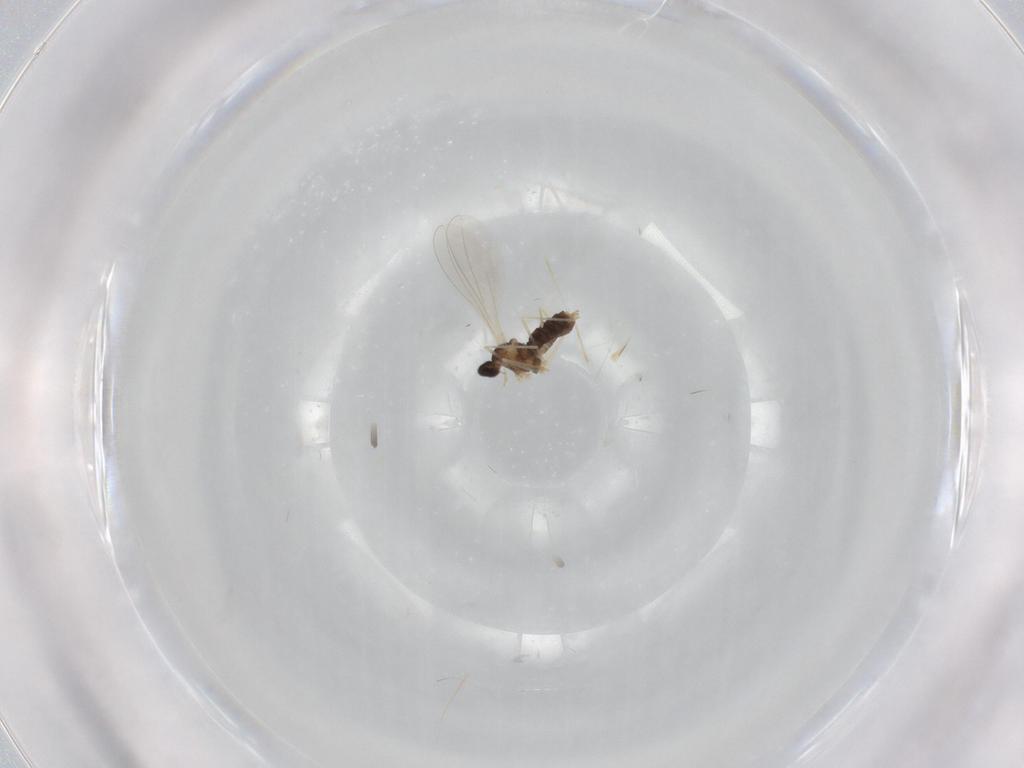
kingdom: Animalia
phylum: Arthropoda
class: Insecta
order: Diptera
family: Cecidomyiidae
